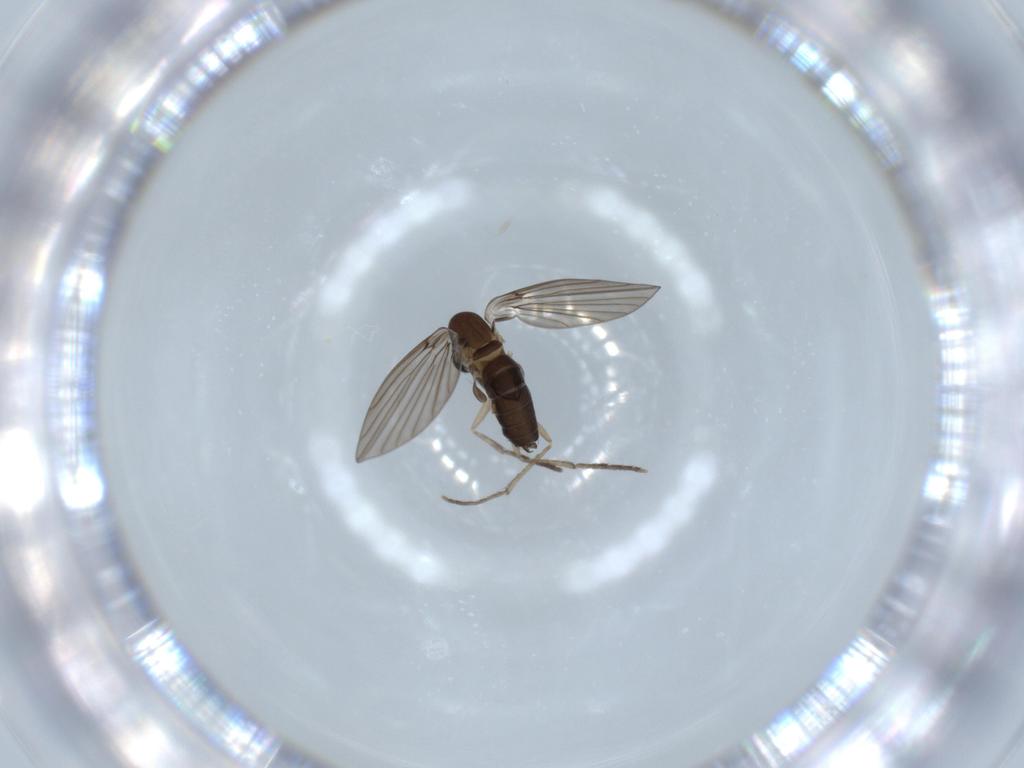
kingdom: Animalia
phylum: Arthropoda
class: Insecta
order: Diptera
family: Psychodidae
